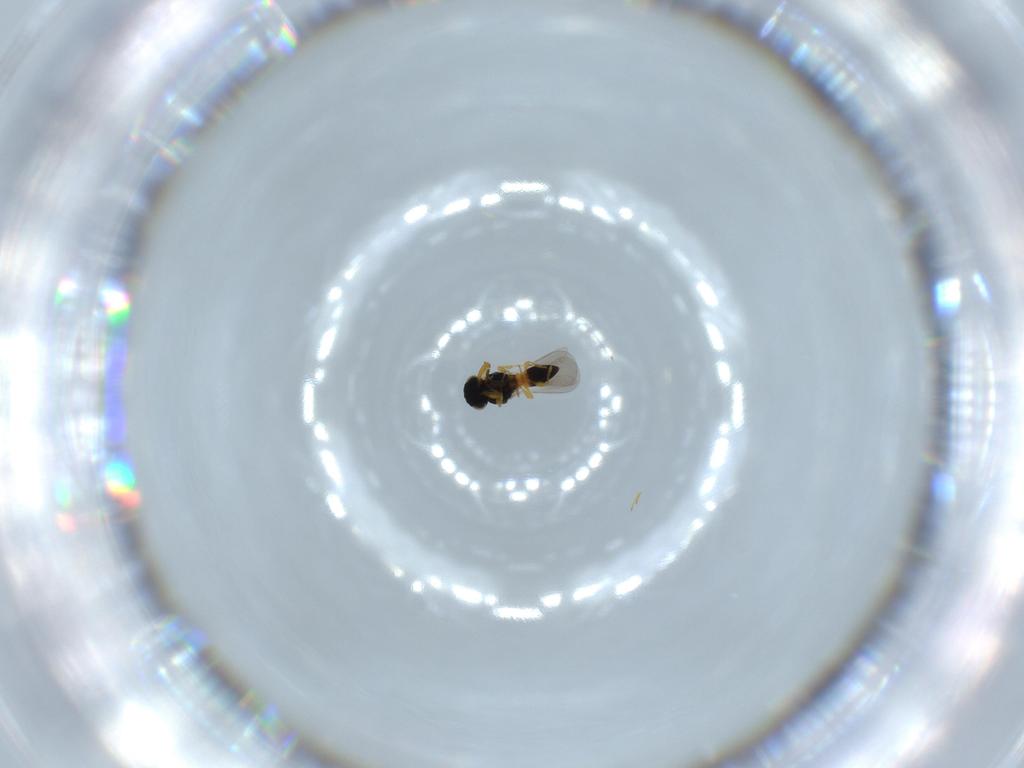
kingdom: Animalia
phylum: Arthropoda
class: Insecta
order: Hymenoptera
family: Platygastridae
